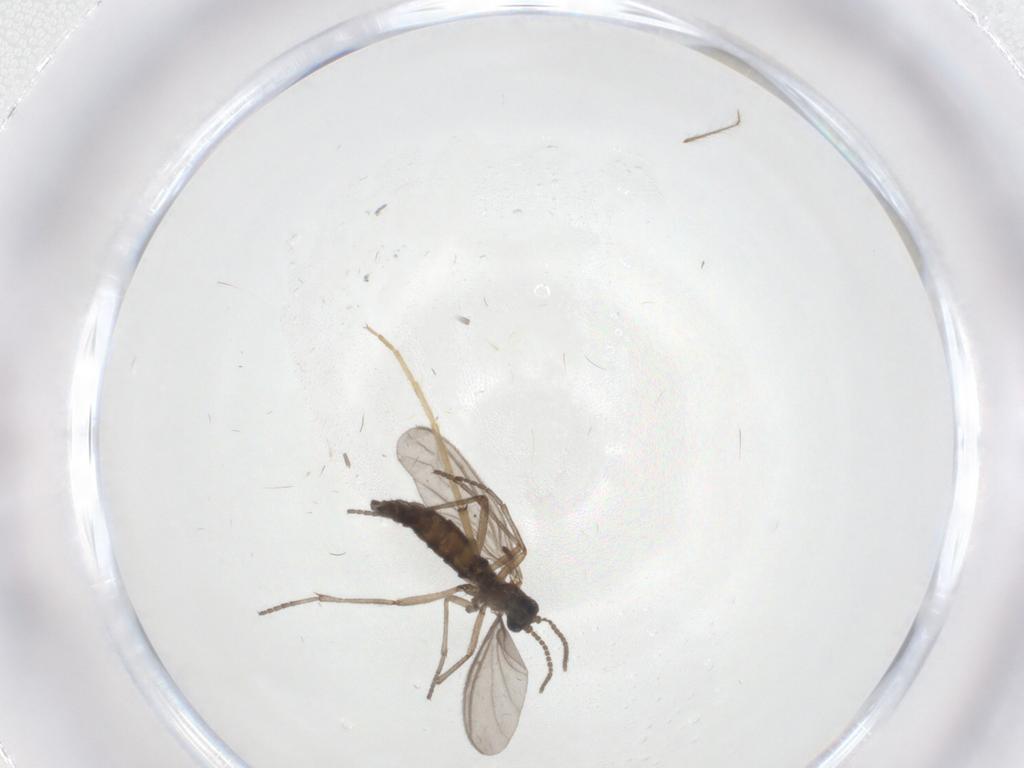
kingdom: Animalia
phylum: Arthropoda
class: Insecta
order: Diptera
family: Sciaridae
